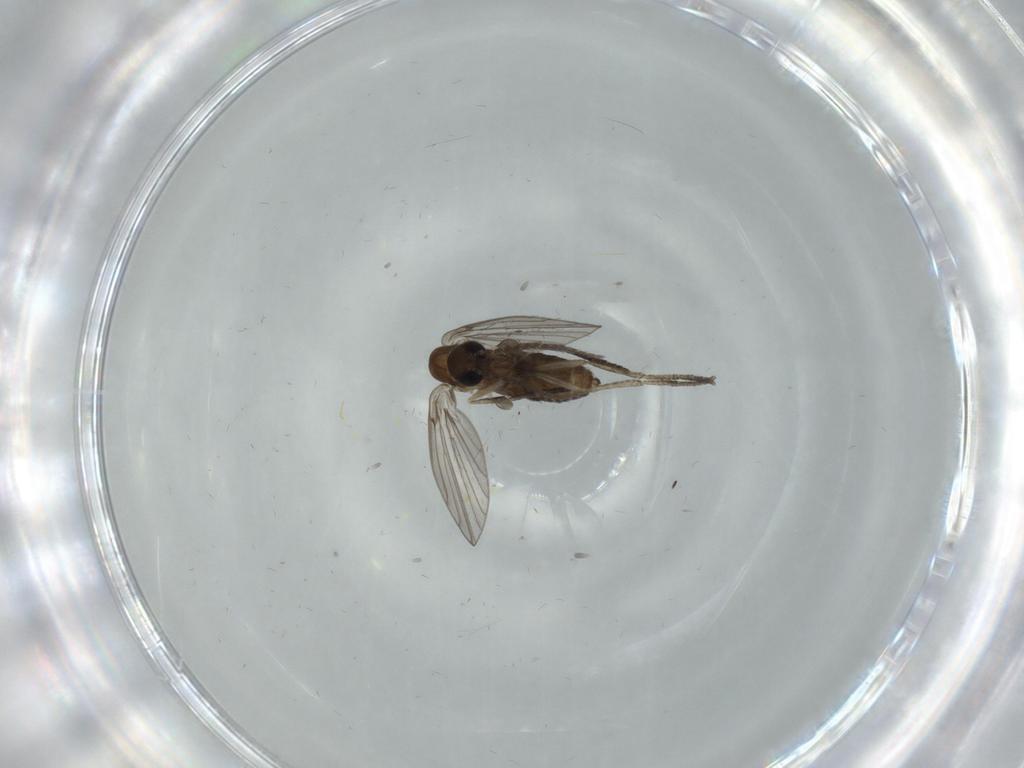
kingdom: Animalia
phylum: Arthropoda
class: Insecta
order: Diptera
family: Psychodidae
